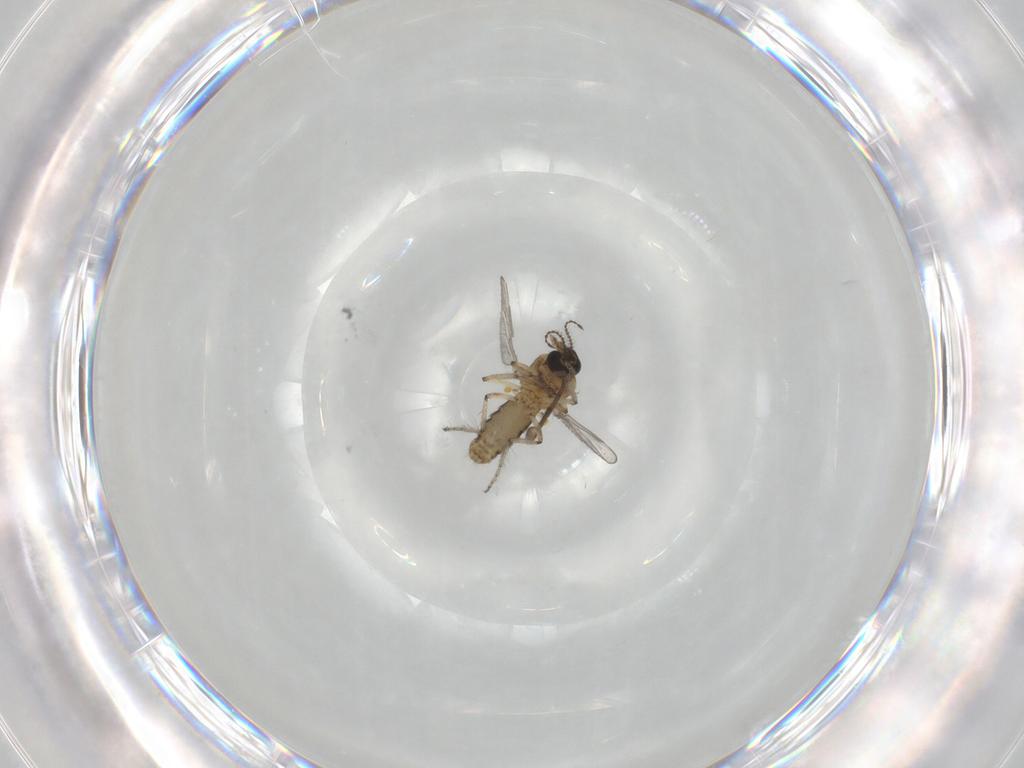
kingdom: Animalia
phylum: Arthropoda
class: Insecta
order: Diptera
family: Ceratopogonidae
